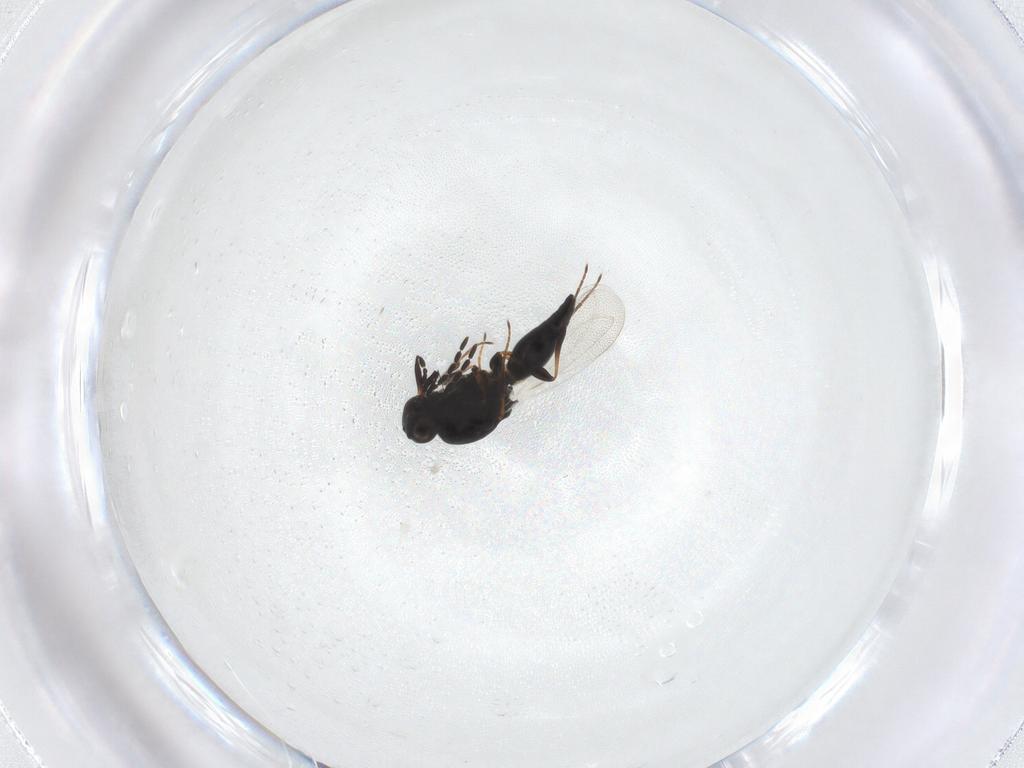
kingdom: Animalia
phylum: Arthropoda
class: Insecta
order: Hymenoptera
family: Platygastridae
